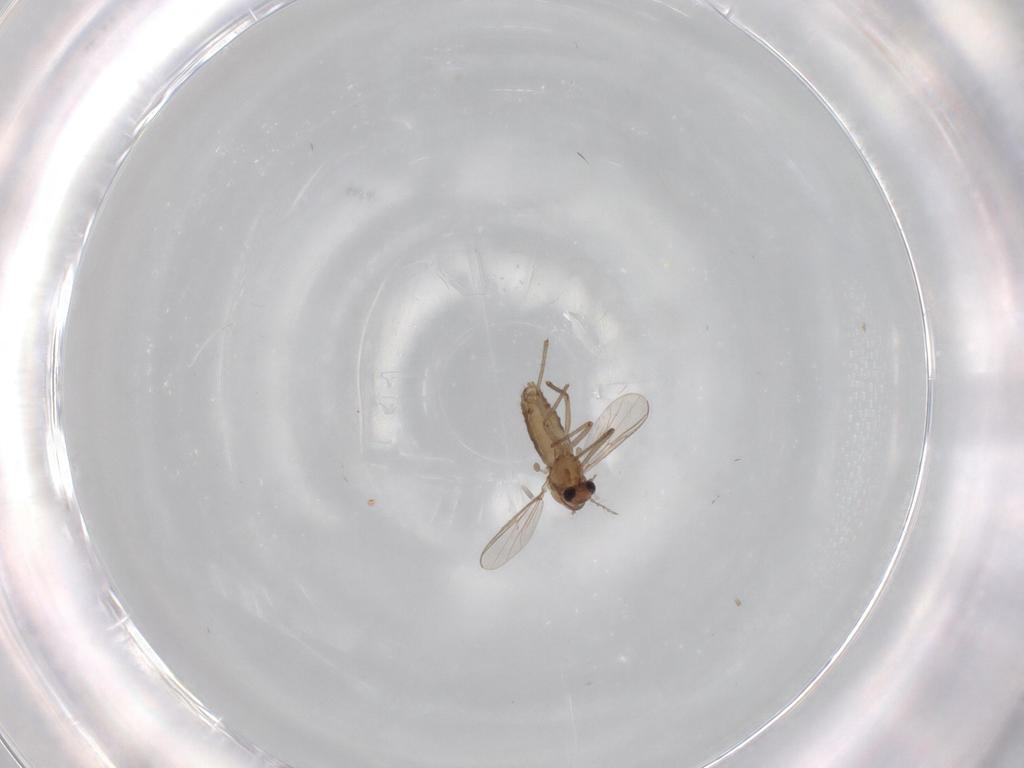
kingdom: Animalia
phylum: Arthropoda
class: Insecta
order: Diptera
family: Chironomidae
